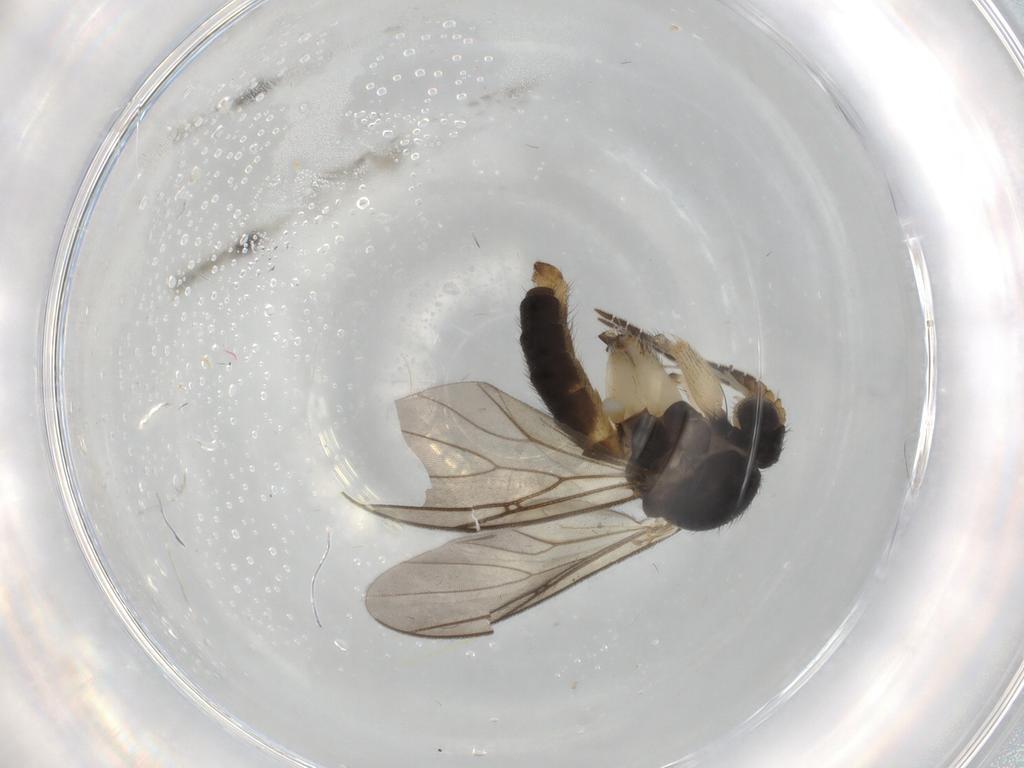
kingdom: Animalia
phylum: Arthropoda
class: Insecta
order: Diptera
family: Mycetophilidae
